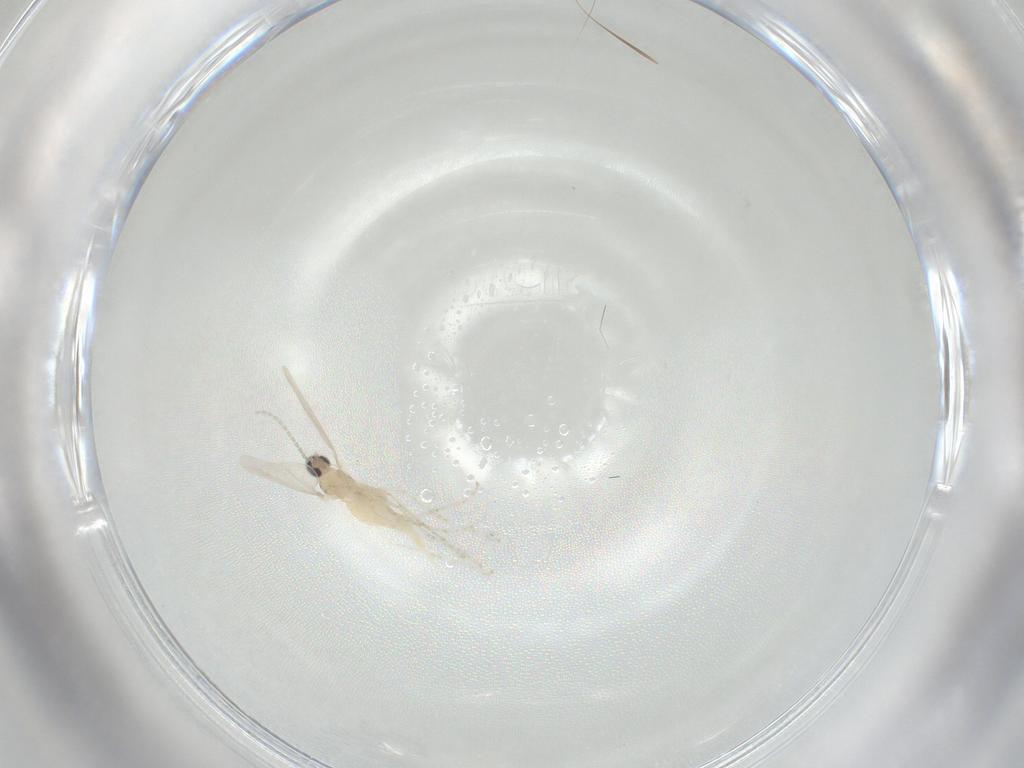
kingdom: Animalia
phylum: Arthropoda
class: Insecta
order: Diptera
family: Cecidomyiidae
